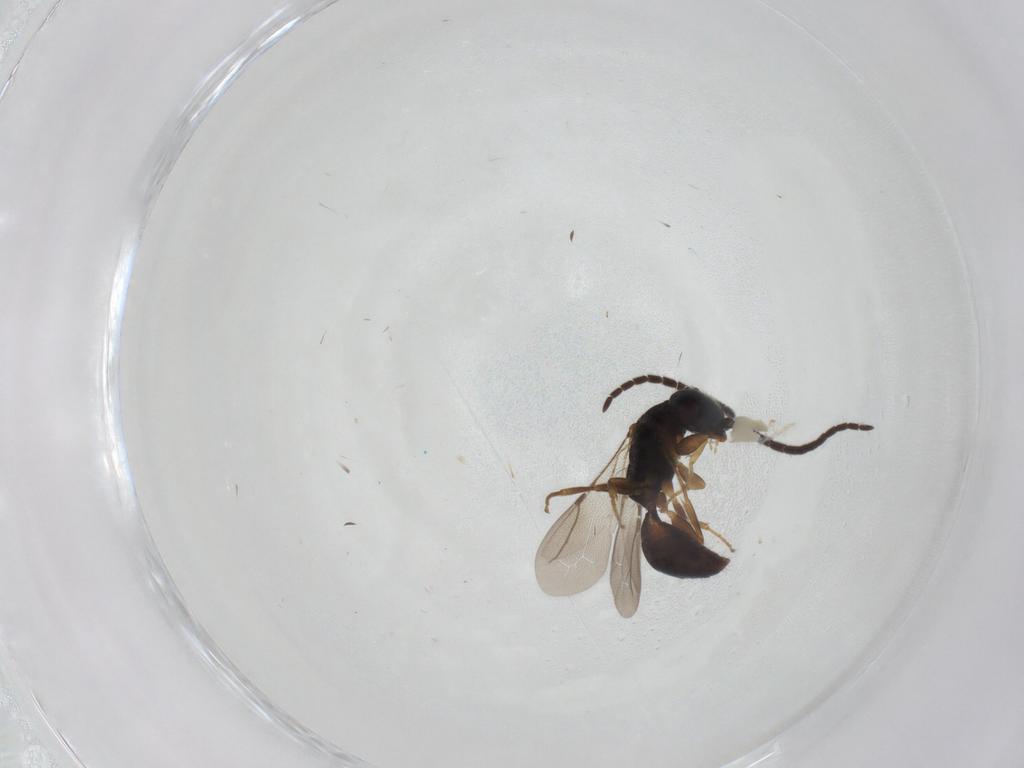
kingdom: Animalia
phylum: Arthropoda
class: Insecta
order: Hymenoptera
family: Bethylidae
